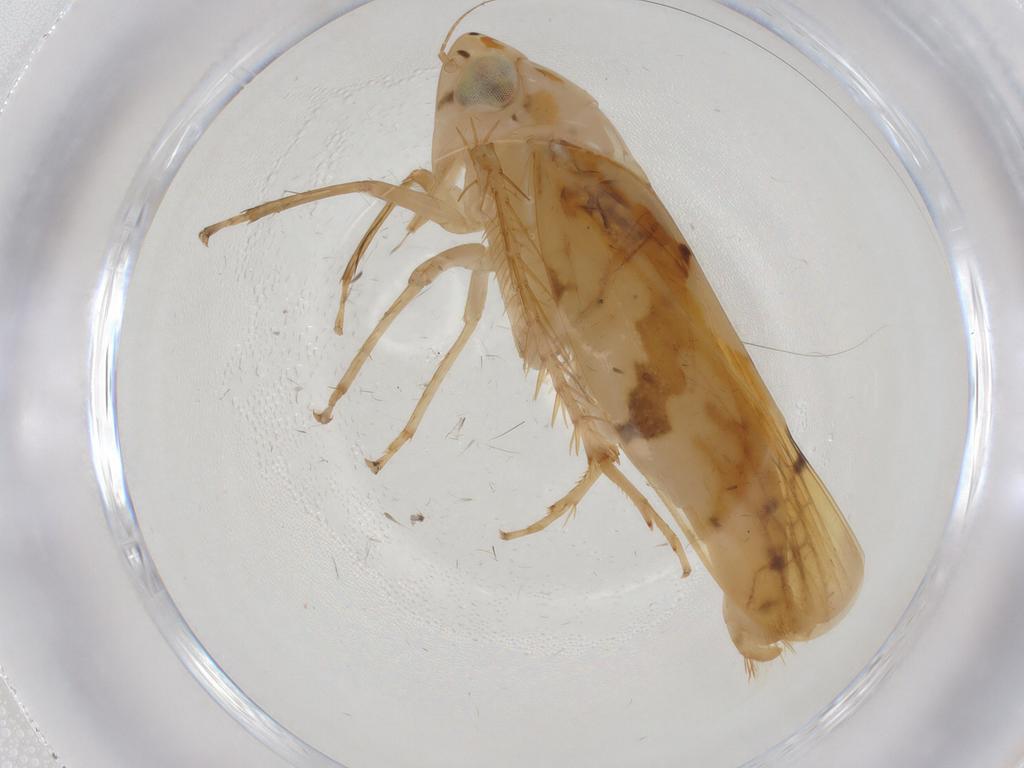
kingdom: Animalia
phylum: Arthropoda
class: Insecta
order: Hemiptera
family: Cicadellidae
